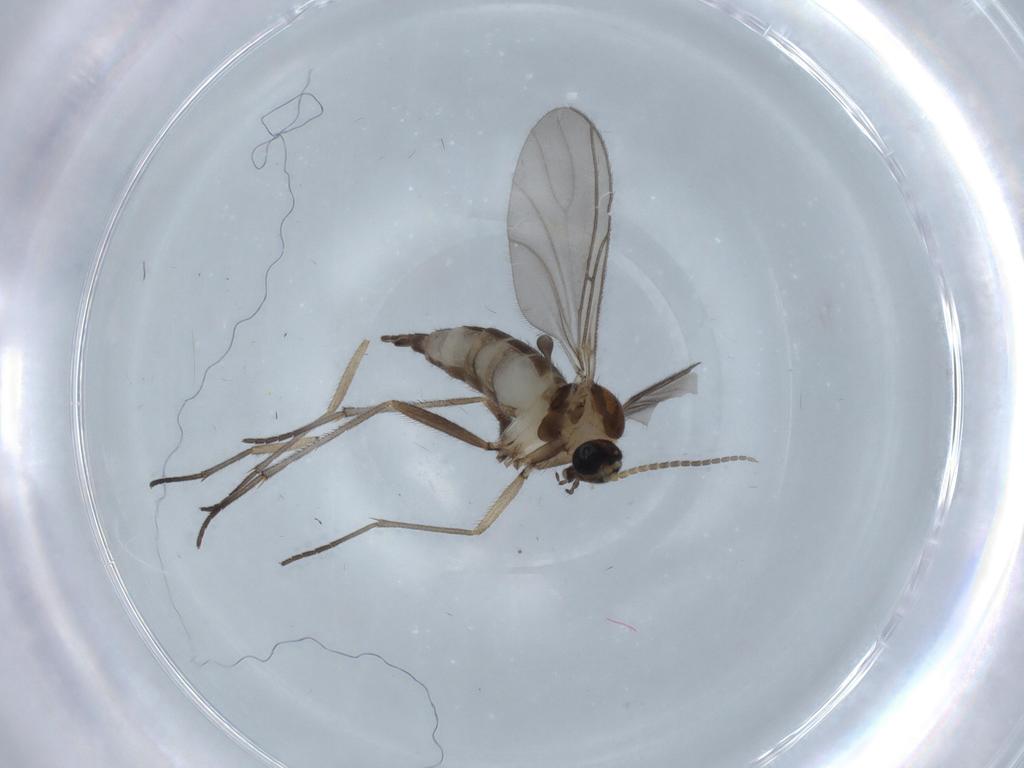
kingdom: Animalia
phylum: Arthropoda
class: Insecta
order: Diptera
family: Sciaridae
